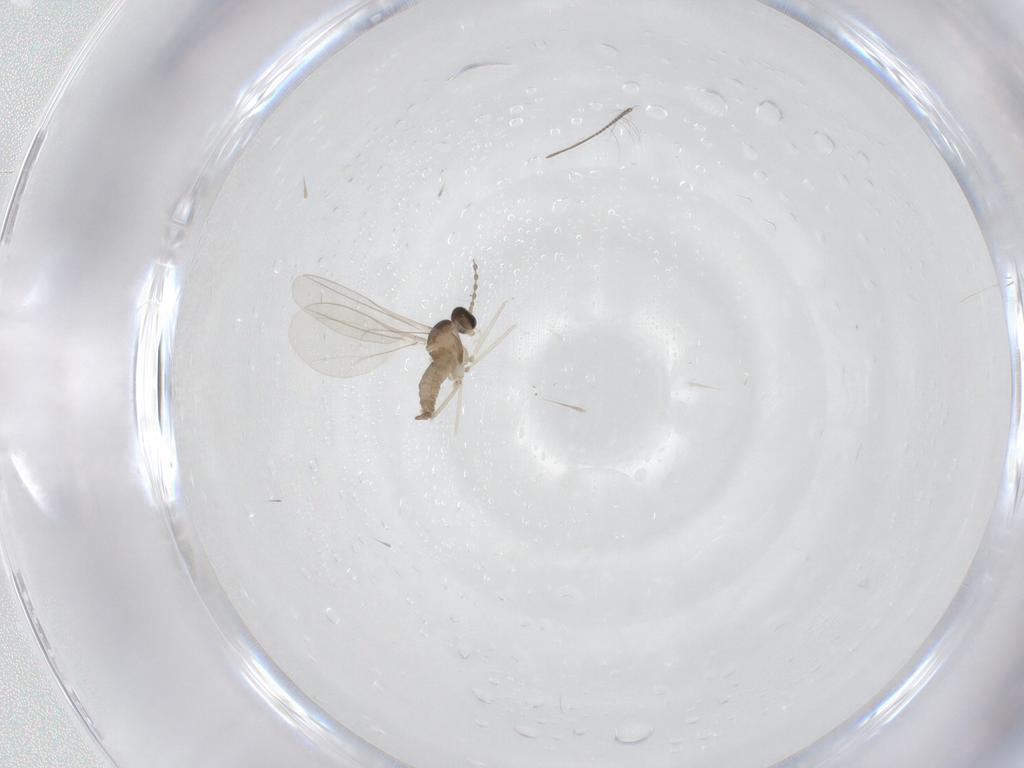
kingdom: Animalia
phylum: Arthropoda
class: Insecta
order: Diptera
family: Cecidomyiidae
